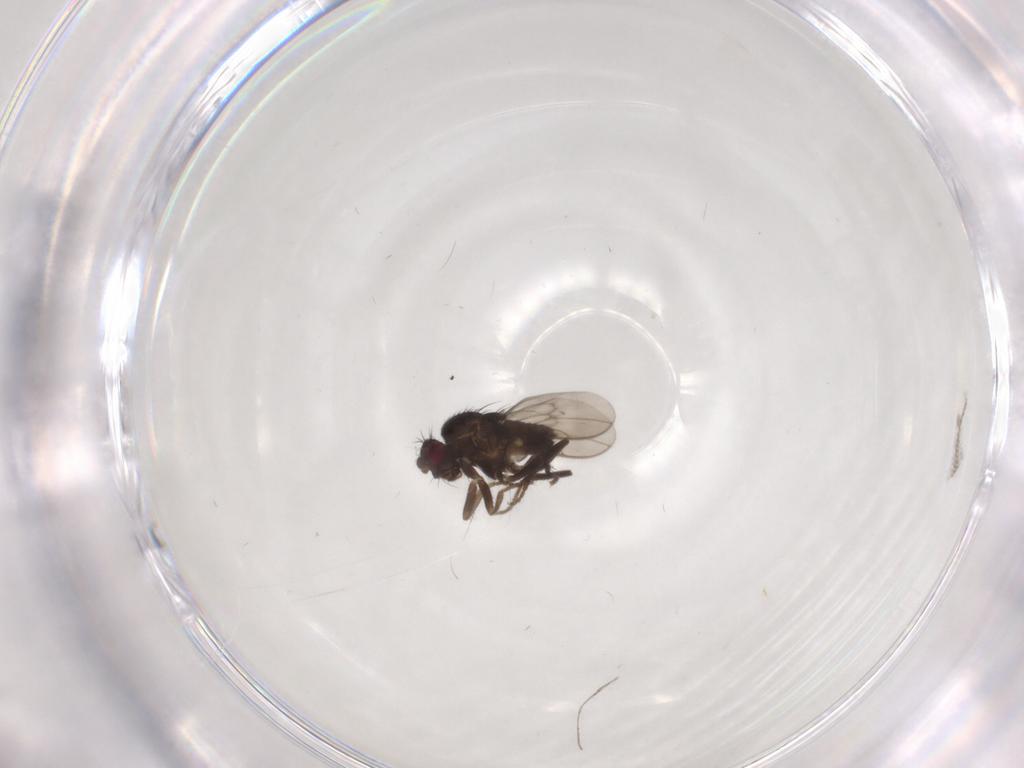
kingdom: Animalia
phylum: Arthropoda
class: Insecta
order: Diptera
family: Sphaeroceridae
